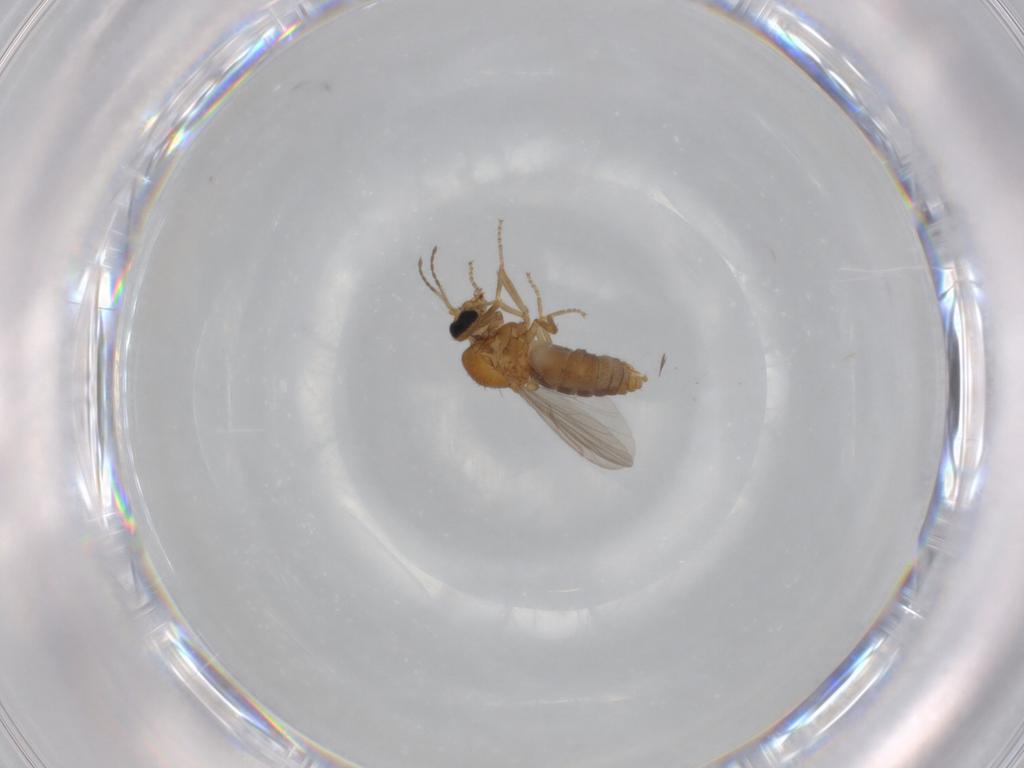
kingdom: Animalia
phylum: Arthropoda
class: Insecta
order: Diptera
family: Ceratopogonidae
